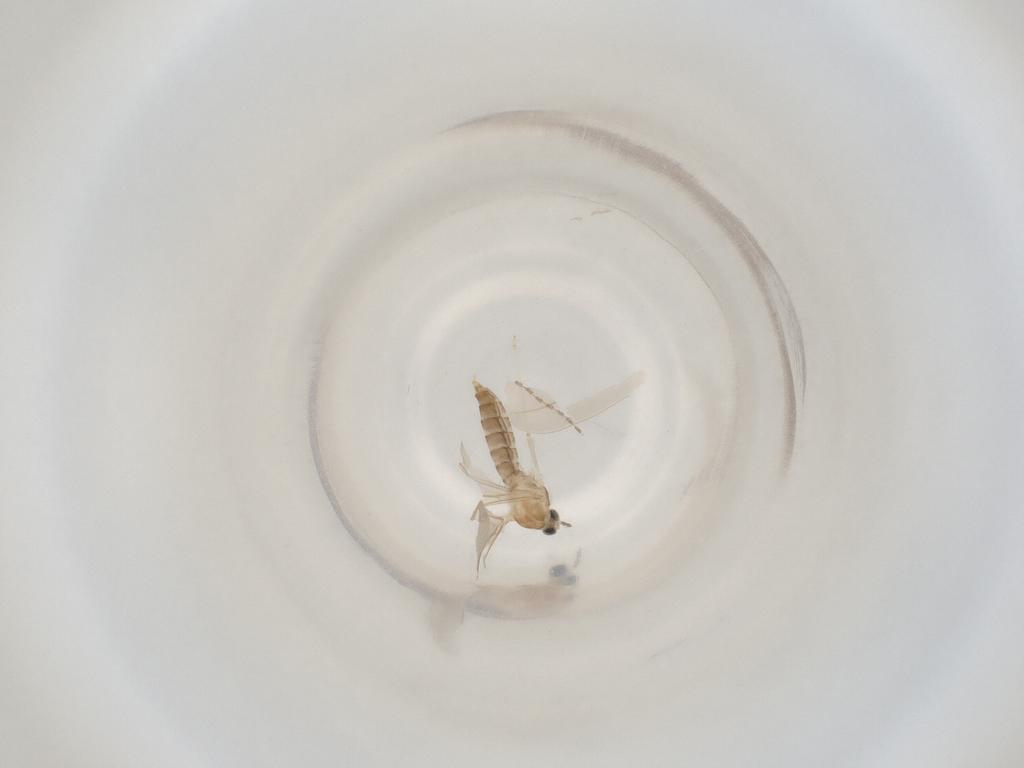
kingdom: Animalia
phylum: Arthropoda
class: Insecta
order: Diptera
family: Cecidomyiidae
